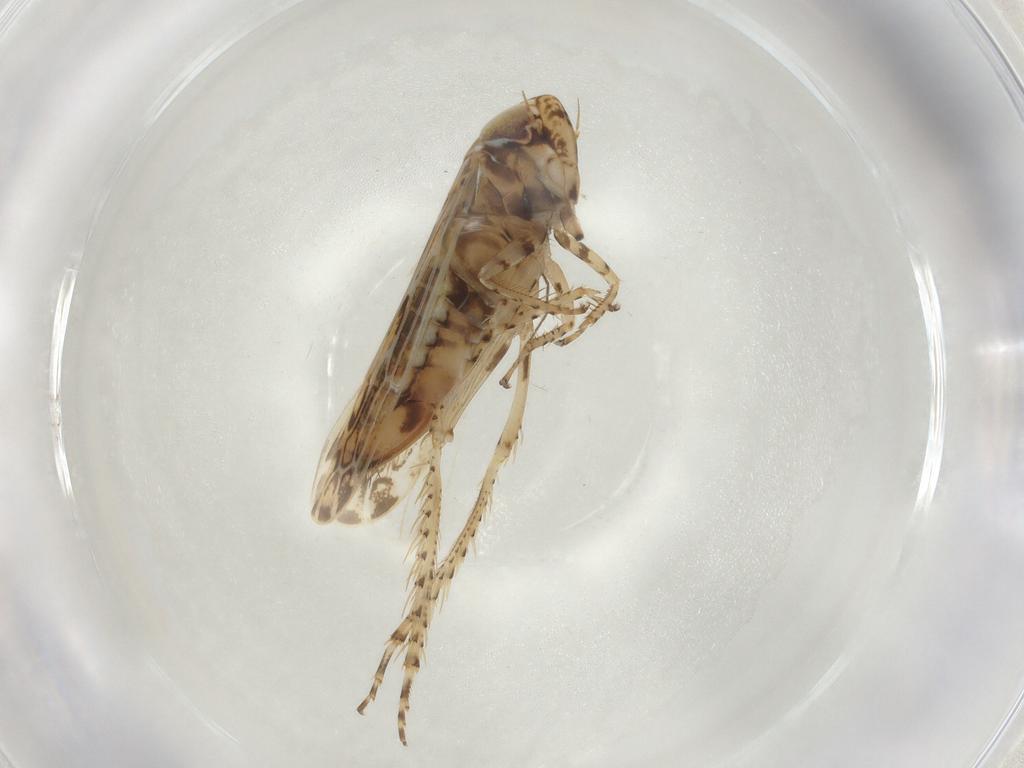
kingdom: Animalia
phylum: Arthropoda
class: Insecta
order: Hemiptera
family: Cicadellidae
